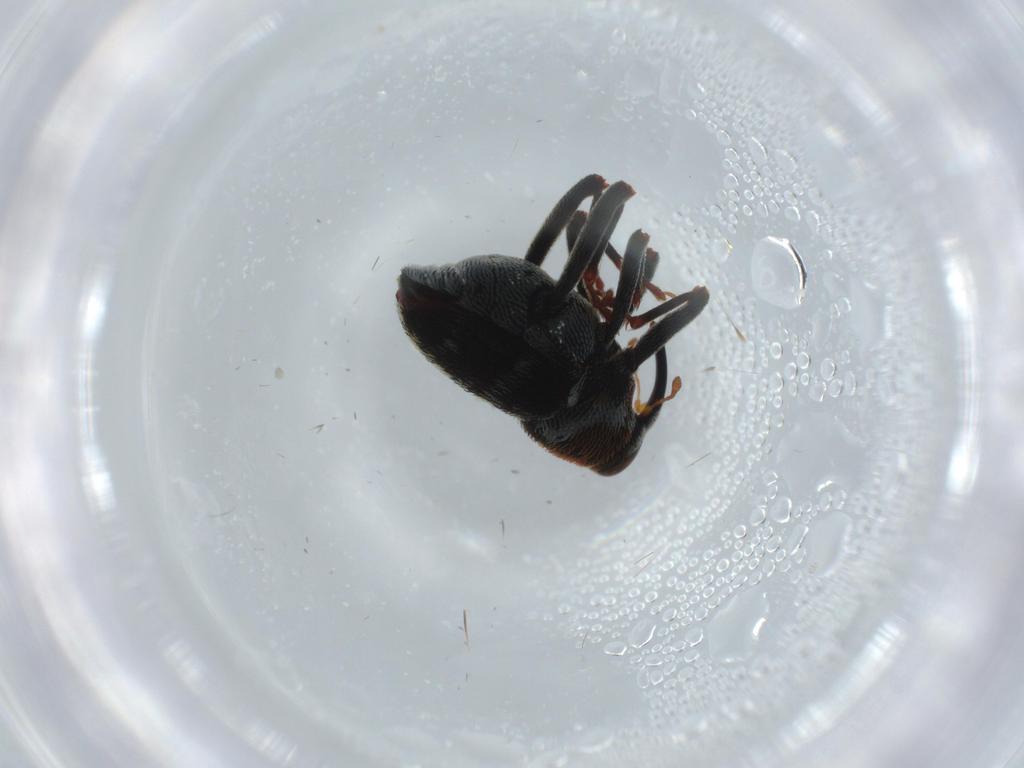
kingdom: Animalia
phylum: Arthropoda
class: Insecta
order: Coleoptera
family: Curculionidae
